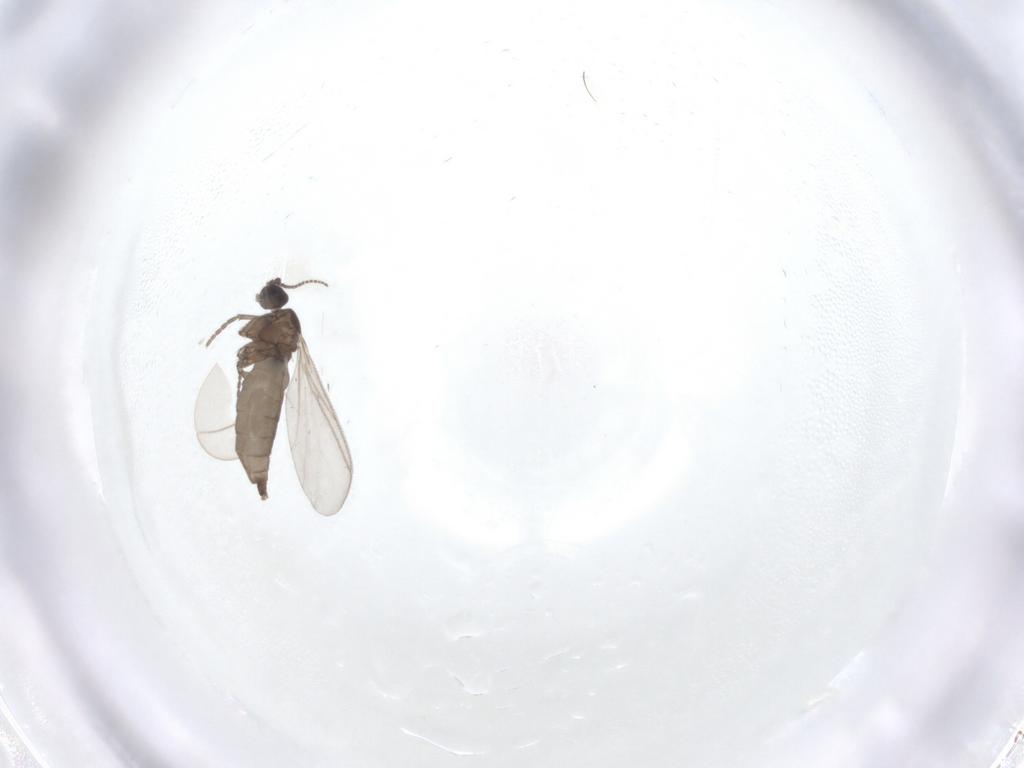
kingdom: Animalia
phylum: Arthropoda
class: Insecta
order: Diptera
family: Sciaridae
